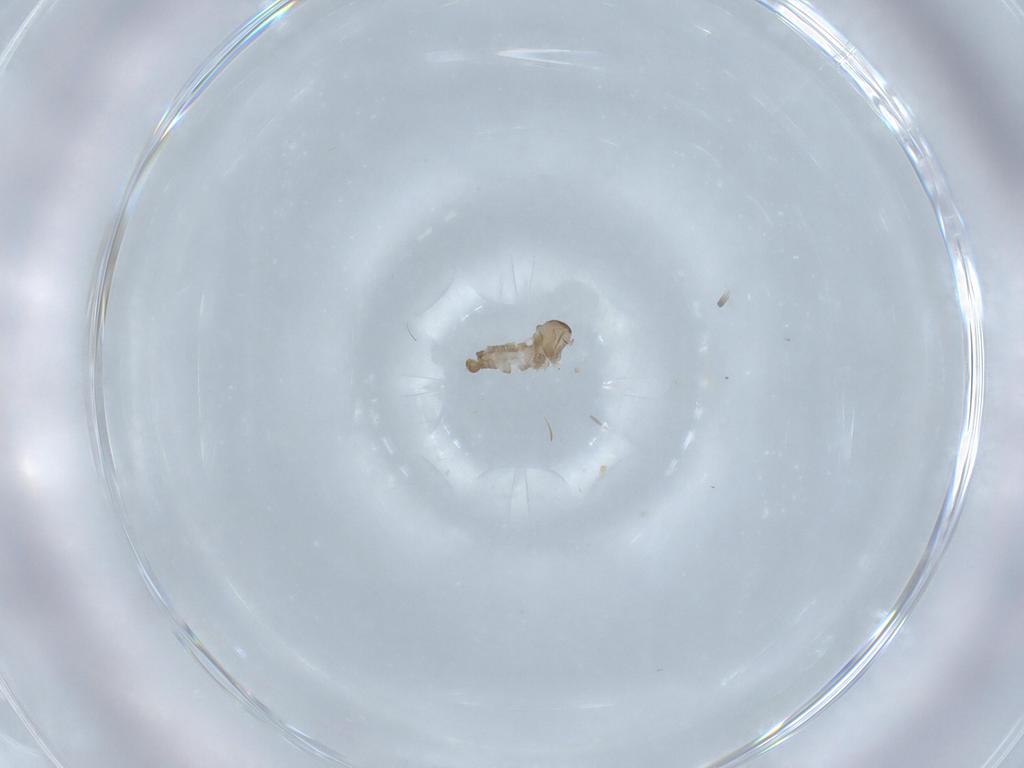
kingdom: Animalia
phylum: Arthropoda
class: Insecta
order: Diptera
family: Cecidomyiidae
